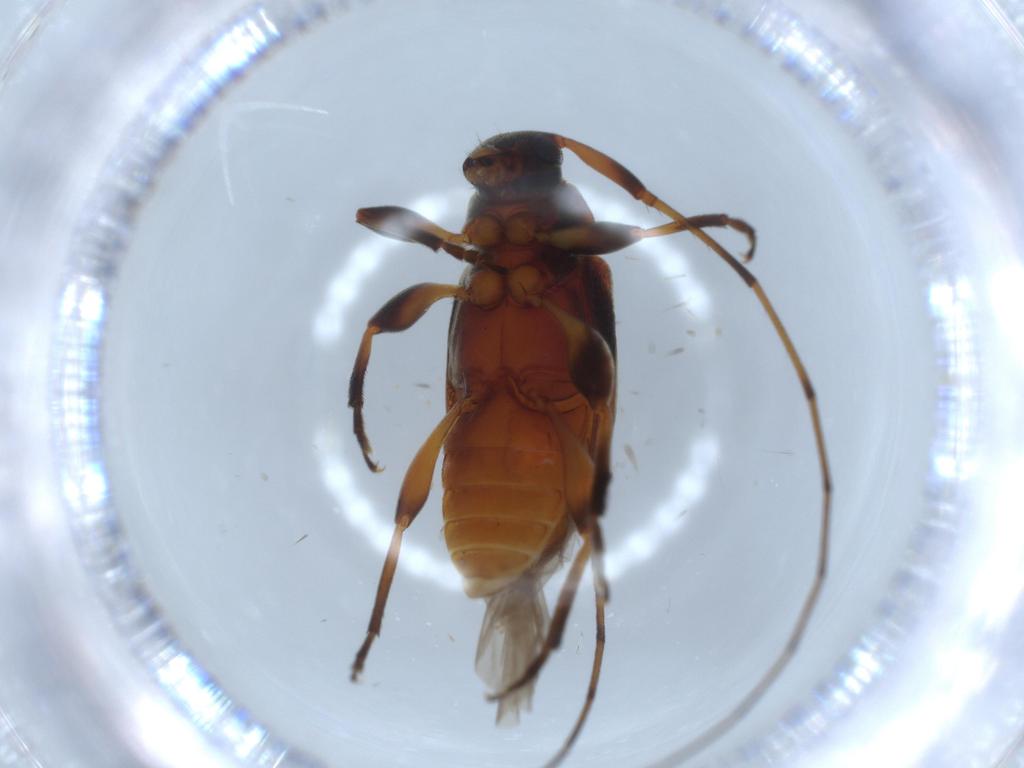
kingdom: Animalia
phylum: Arthropoda
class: Insecta
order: Coleoptera
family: Cerambycidae
